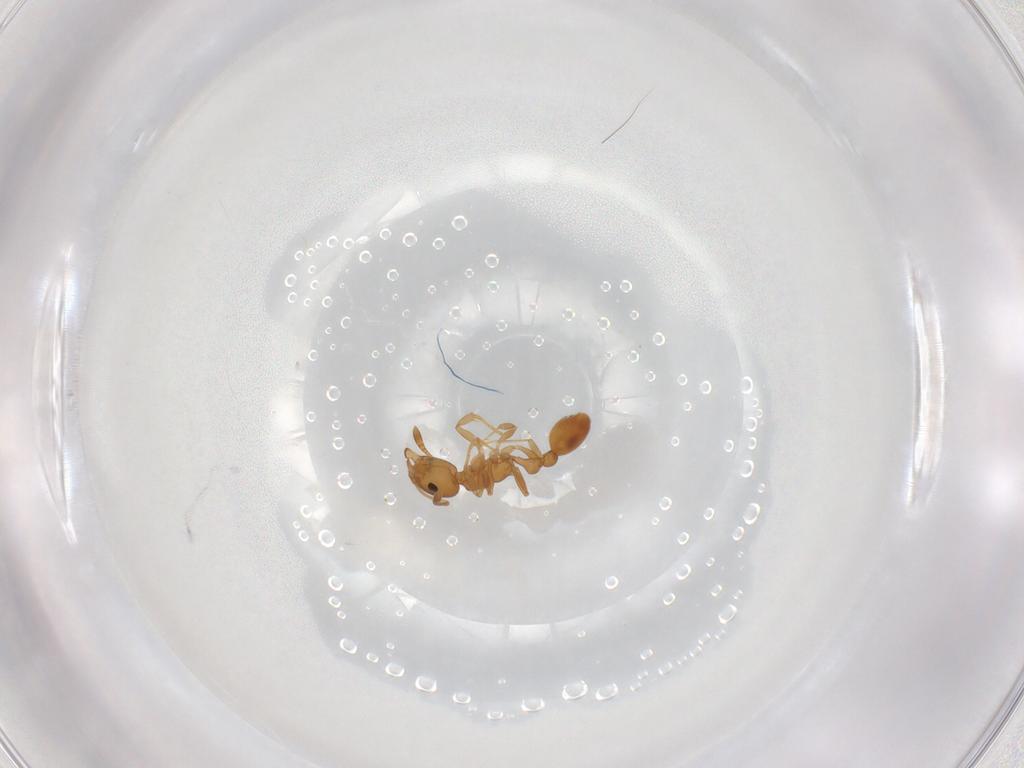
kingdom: Animalia
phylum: Arthropoda
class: Insecta
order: Hymenoptera
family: Formicidae
